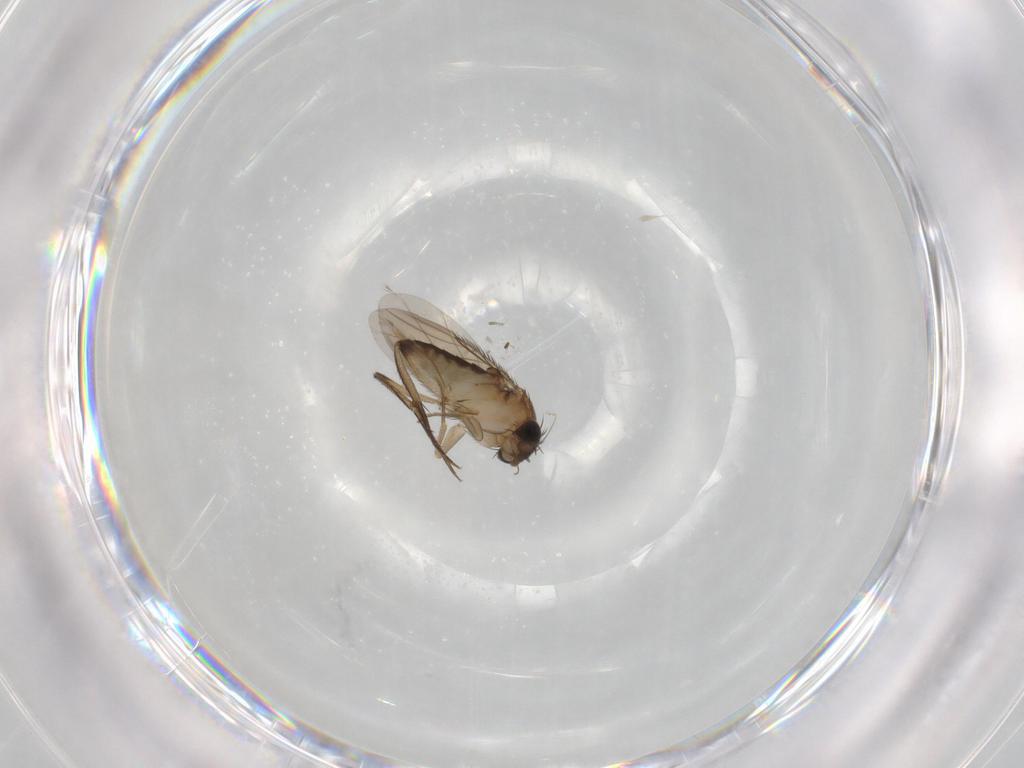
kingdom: Animalia
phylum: Arthropoda
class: Insecta
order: Diptera
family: Phoridae
